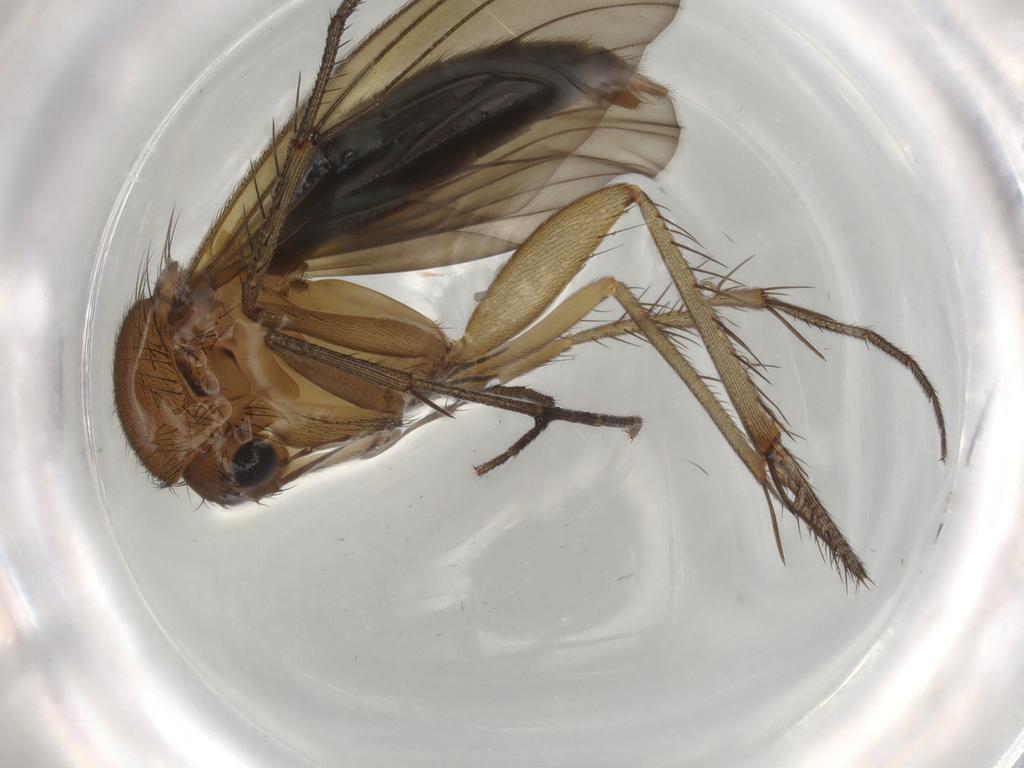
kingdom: Animalia
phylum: Arthropoda
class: Insecta
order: Diptera
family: Mycetophilidae
